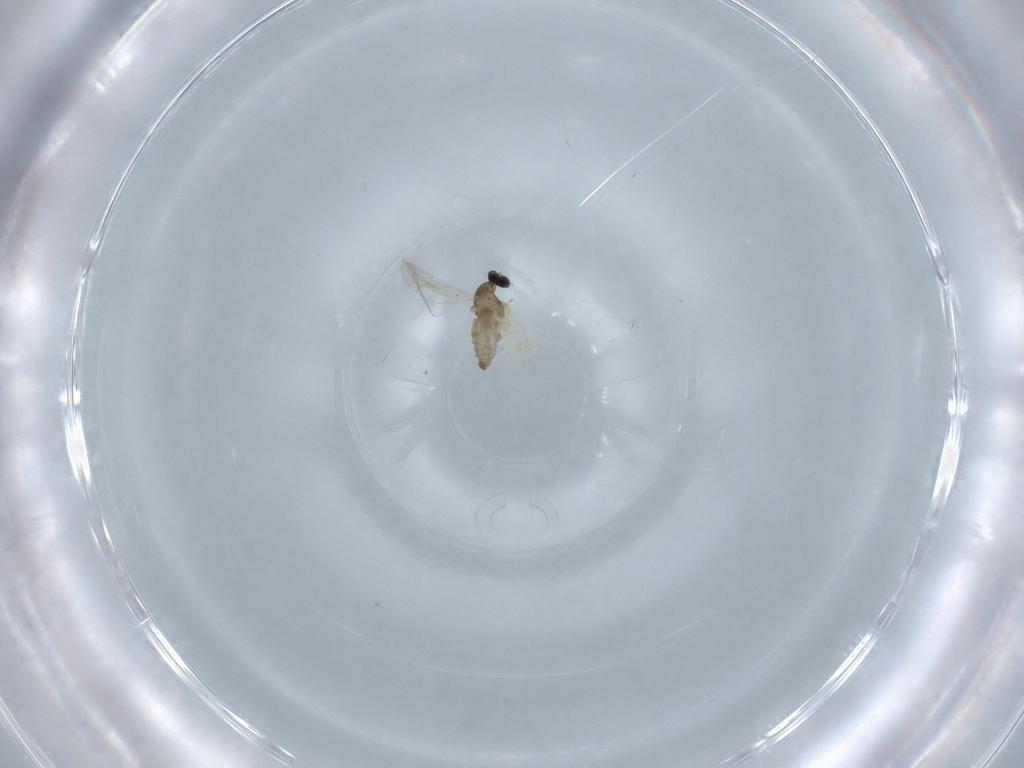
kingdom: Animalia
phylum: Arthropoda
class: Insecta
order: Diptera
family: Cecidomyiidae
